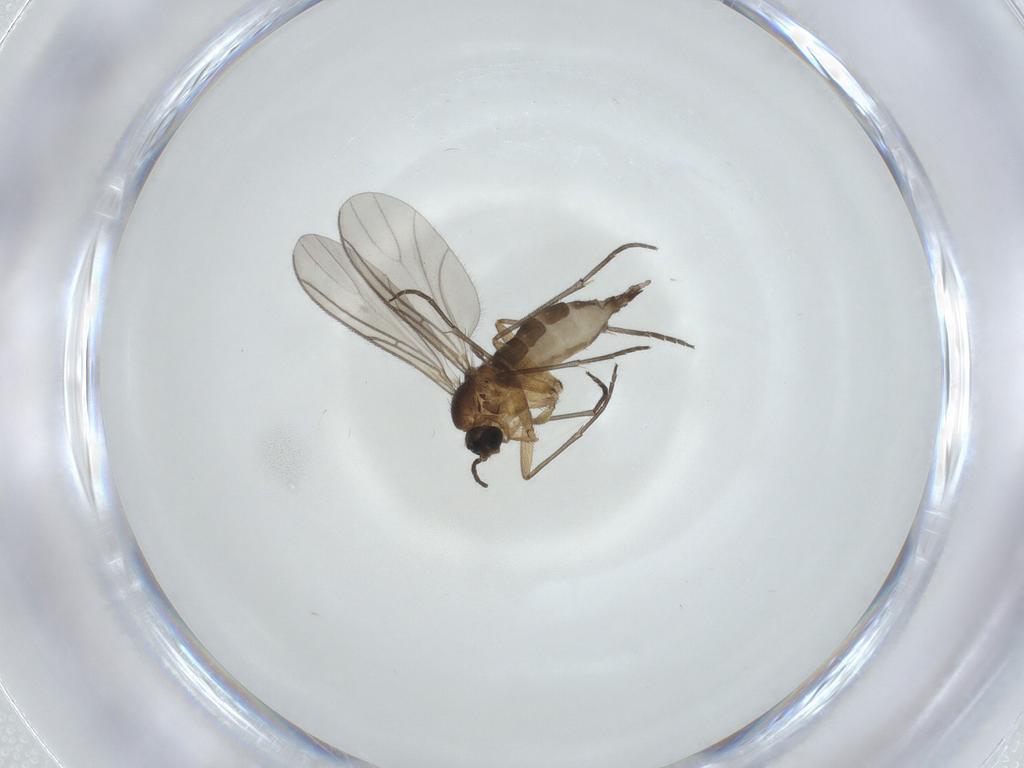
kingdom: Animalia
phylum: Arthropoda
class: Insecta
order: Diptera
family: Sciaridae
